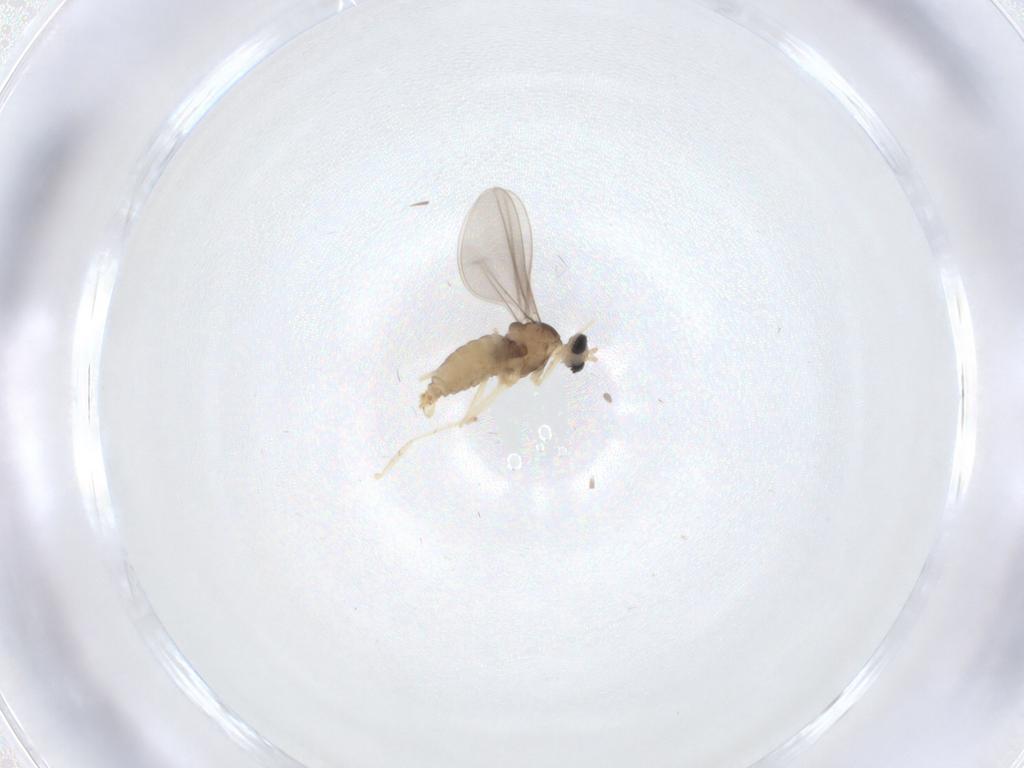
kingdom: Animalia
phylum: Arthropoda
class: Insecta
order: Diptera
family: Cecidomyiidae
